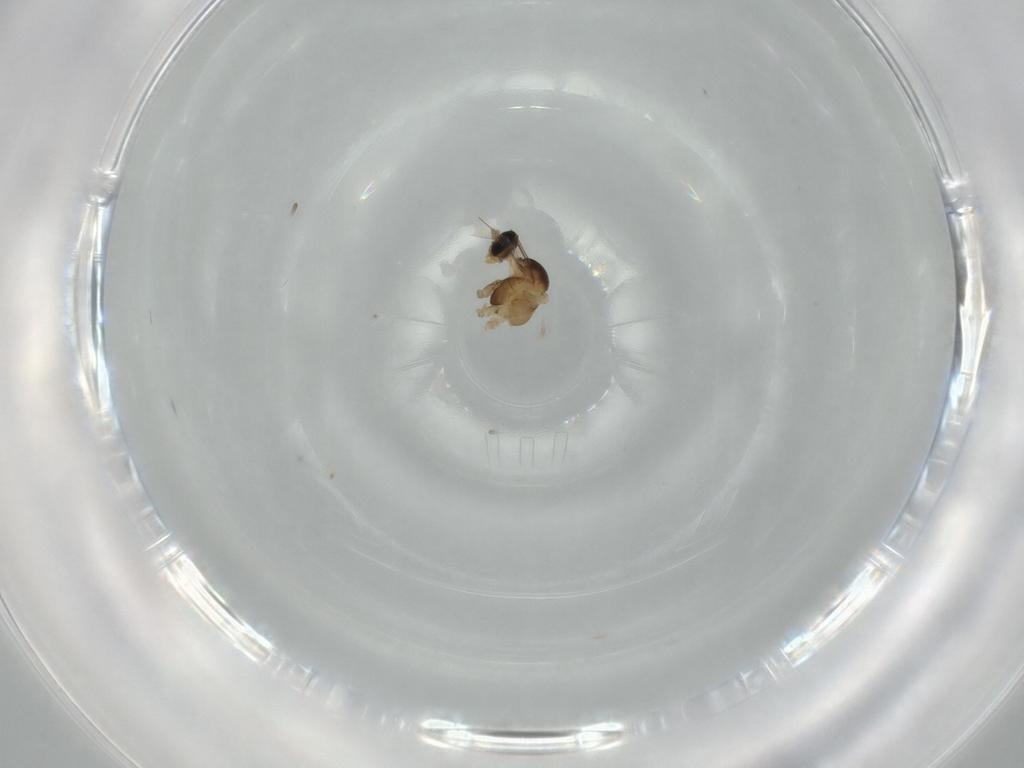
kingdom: Animalia
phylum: Arthropoda
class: Insecta
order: Diptera
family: Cecidomyiidae
